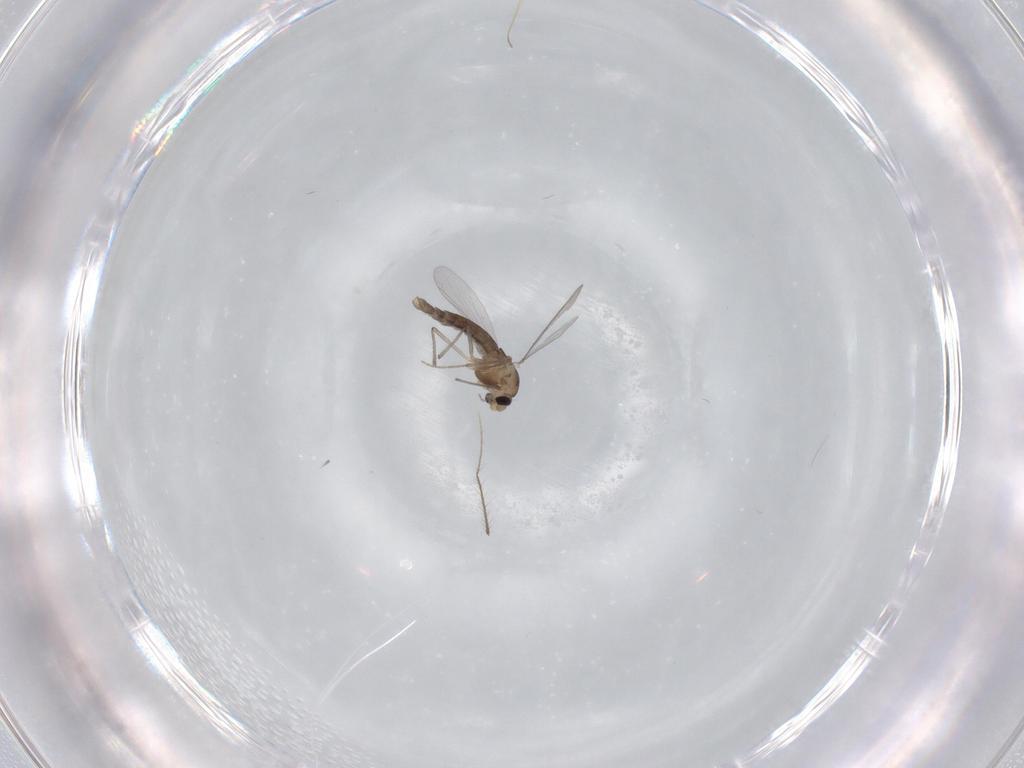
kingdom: Animalia
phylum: Arthropoda
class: Insecta
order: Diptera
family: Chironomidae
